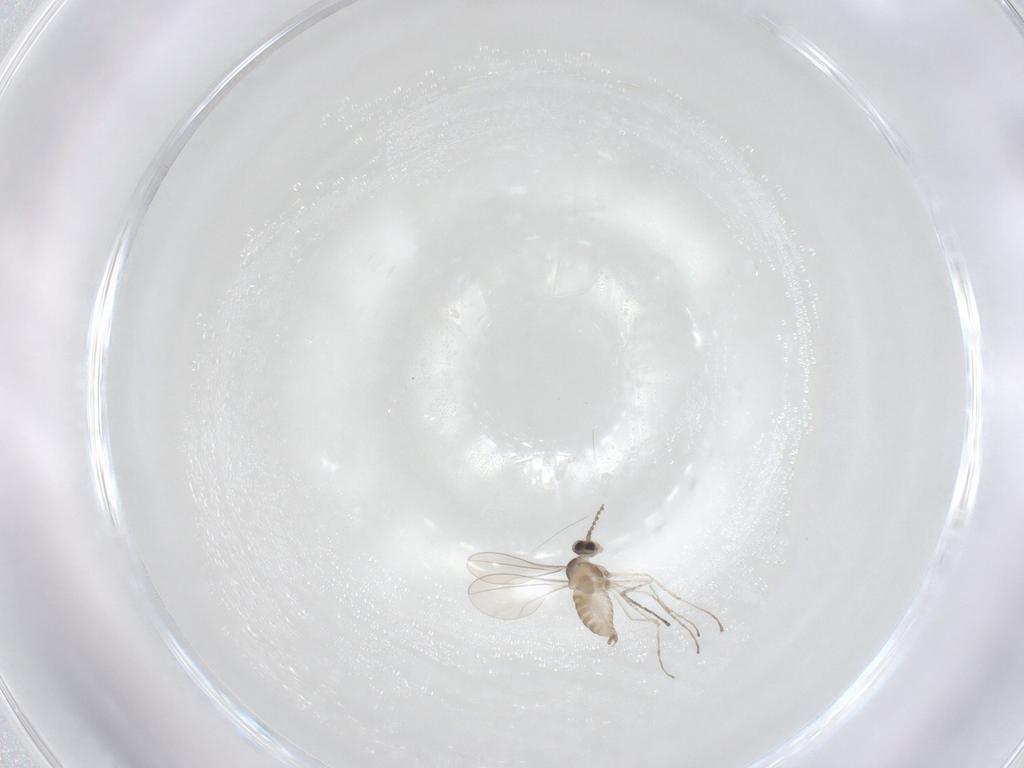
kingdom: Animalia
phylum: Arthropoda
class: Insecta
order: Diptera
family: Cecidomyiidae
